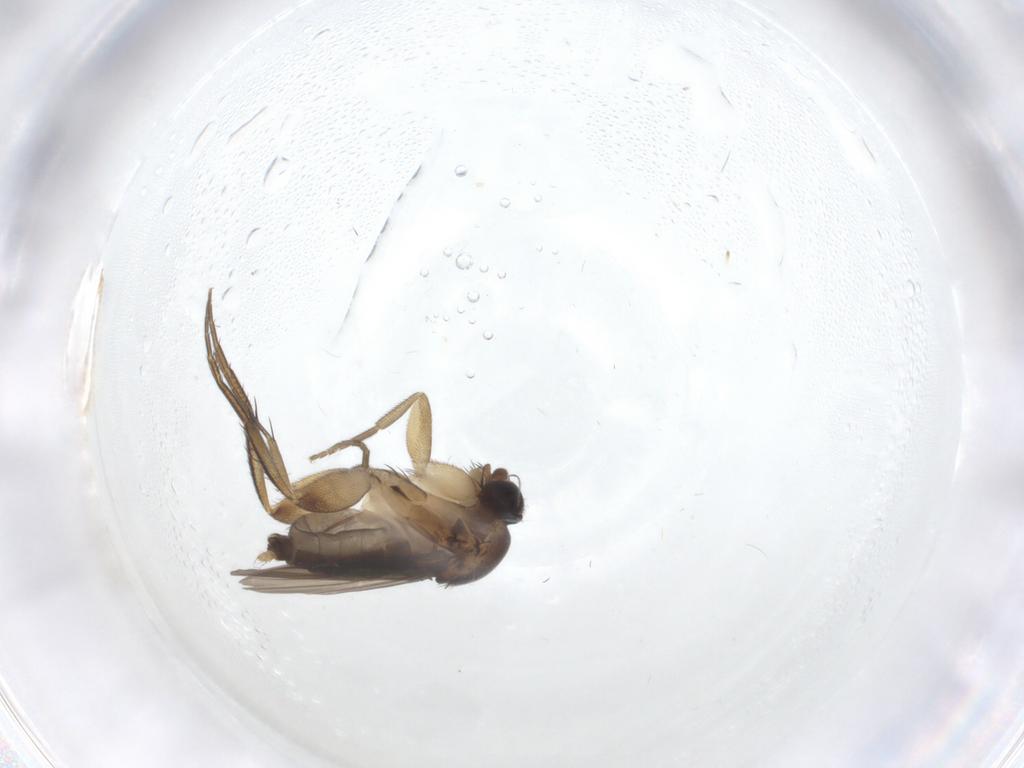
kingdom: Animalia
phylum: Arthropoda
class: Insecta
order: Diptera
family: Phoridae
